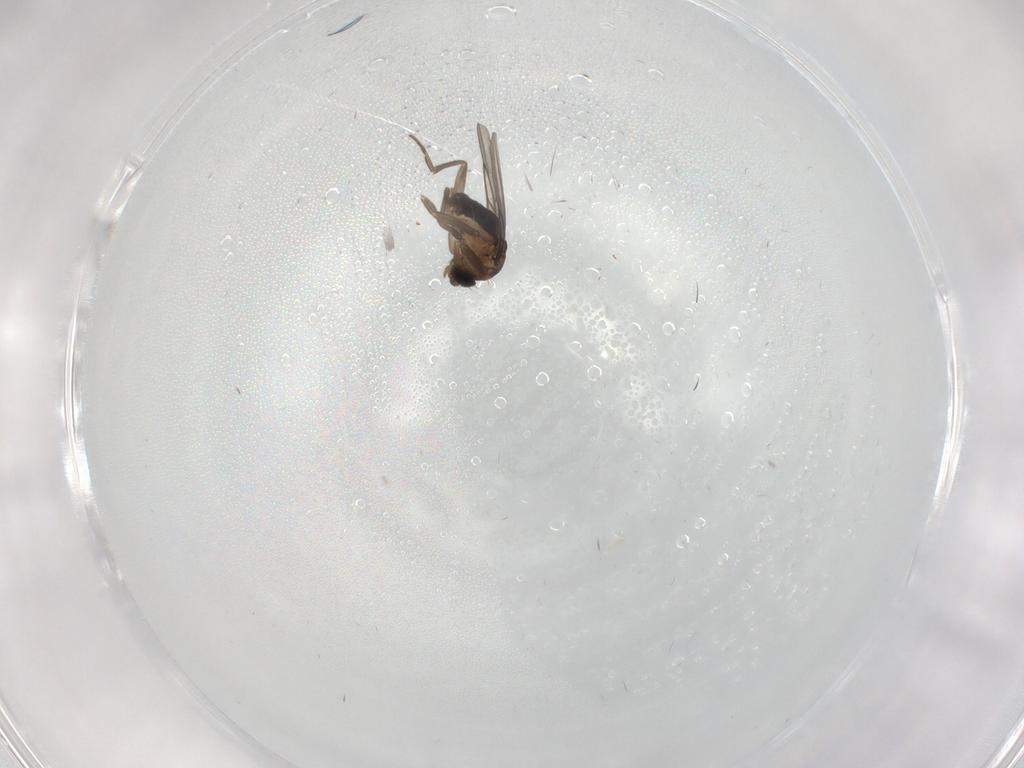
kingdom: Animalia
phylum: Arthropoda
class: Insecta
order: Diptera
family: Phoridae
